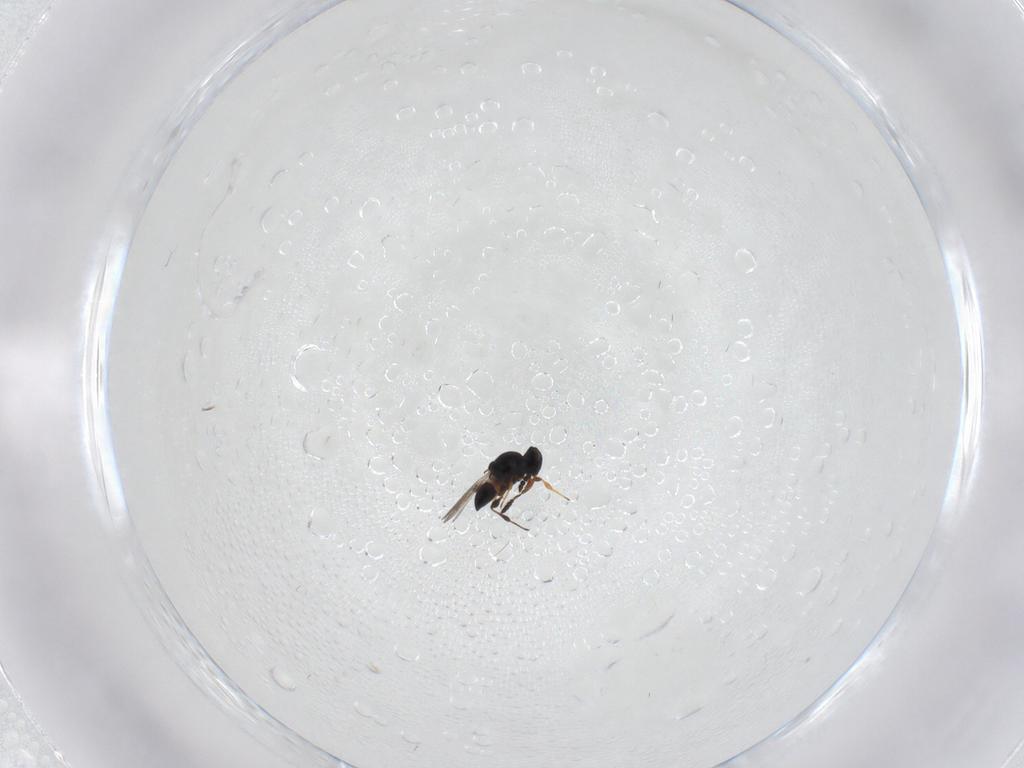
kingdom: Animalia
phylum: Arthropoda
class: Insecta
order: Hymenoptera
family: Platygastridae
